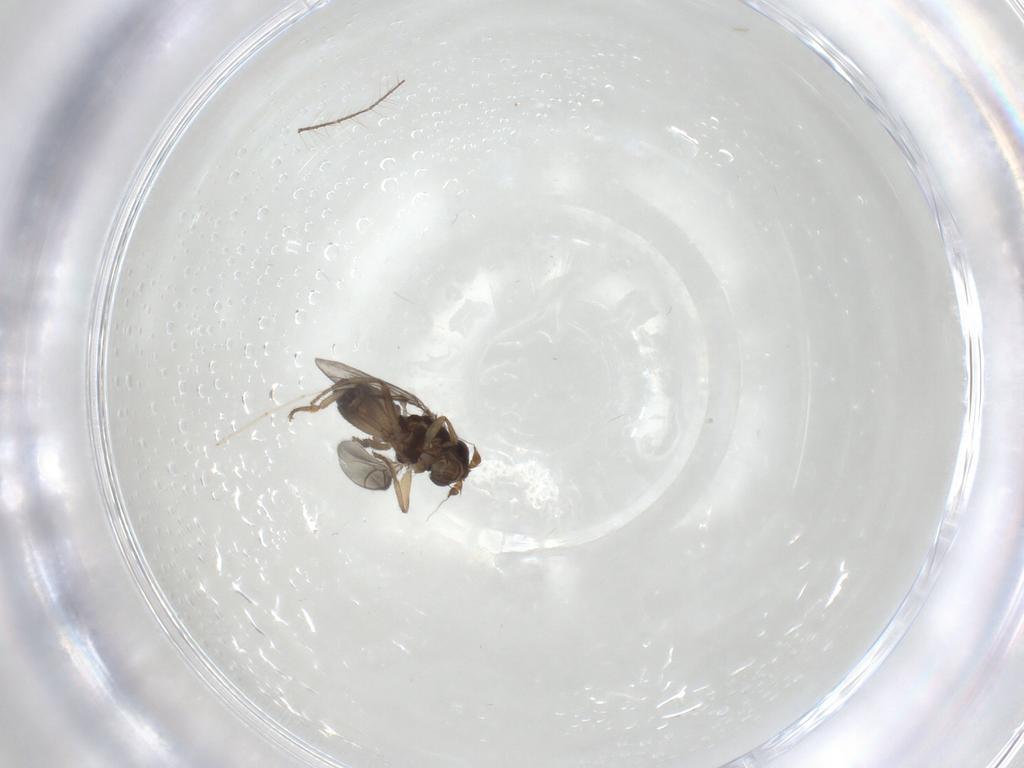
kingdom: Animalia
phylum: Arthropoda
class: Insecta
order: Diptera
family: Sphaeroceridae
